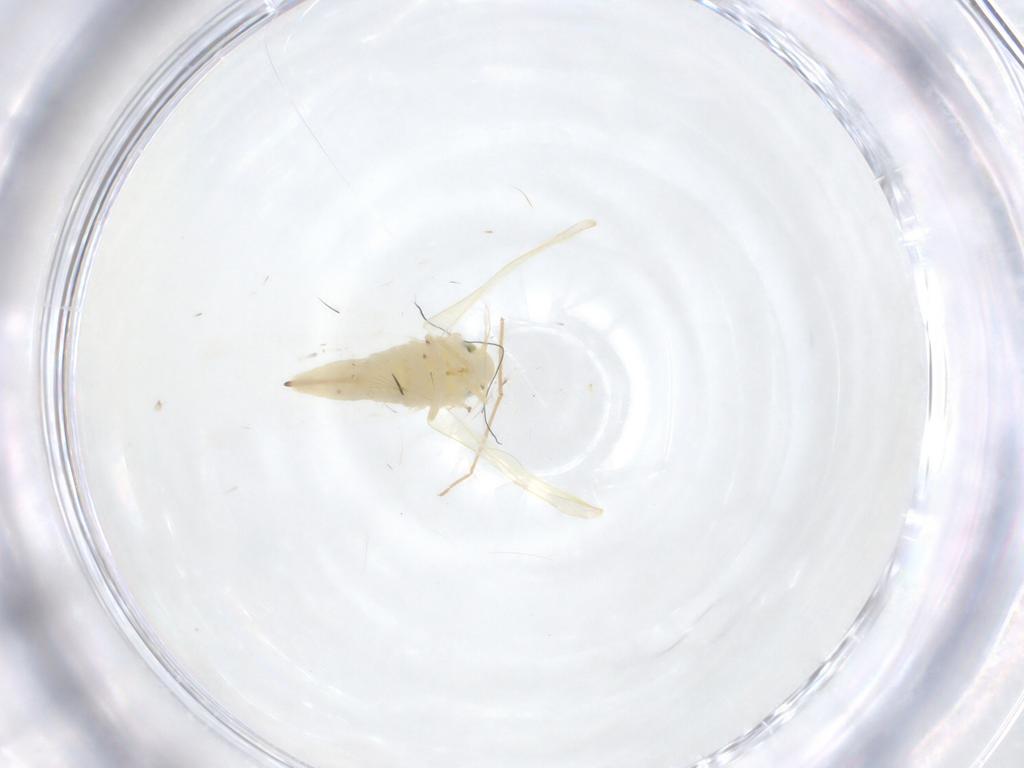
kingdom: Animalia
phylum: Arthropoda
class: Insecta
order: Hemiptera
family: Cicadellidae
